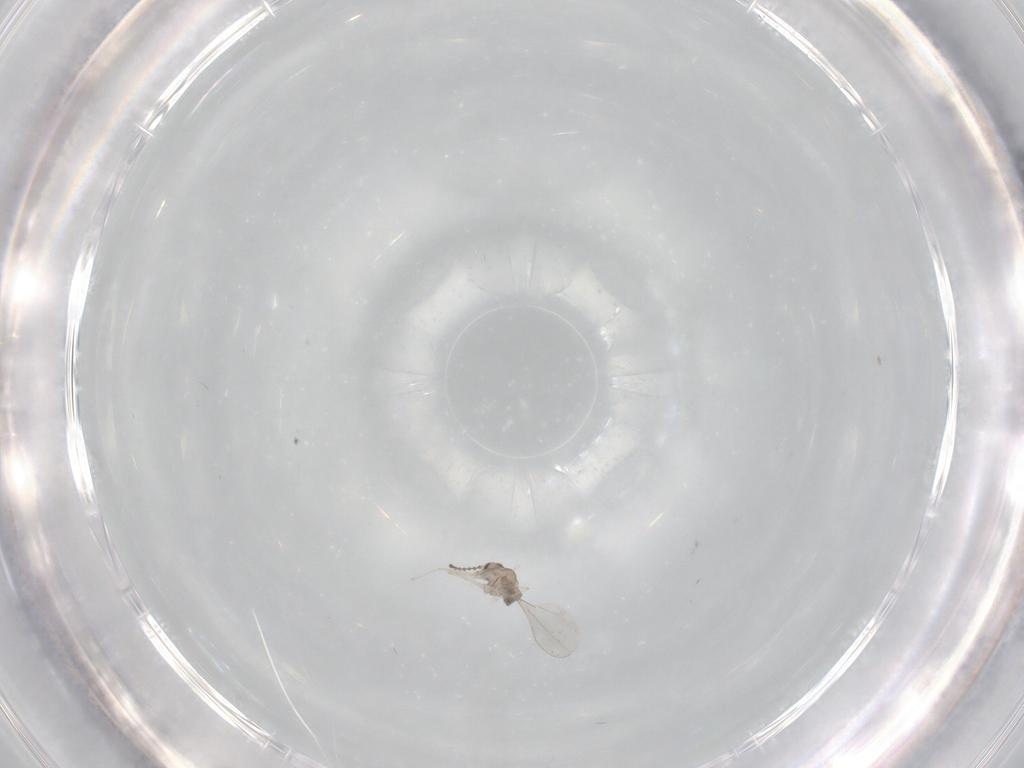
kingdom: Animalia
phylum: Arthropoda
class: Insecta
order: Diptera
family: Cecidomyiidae
